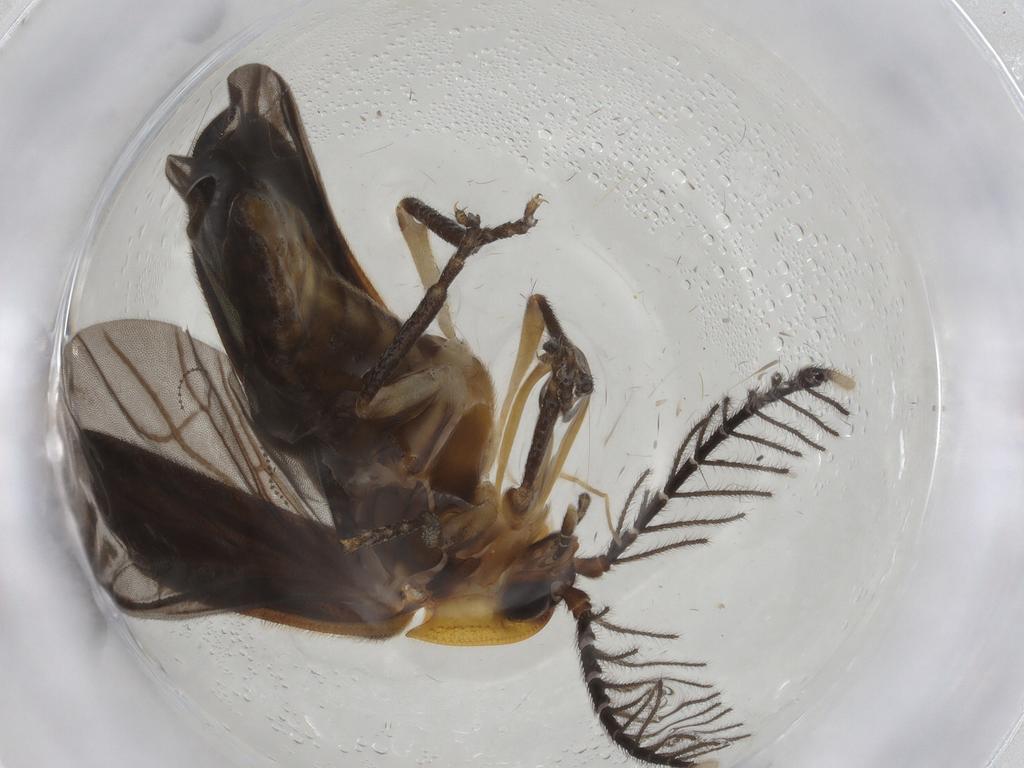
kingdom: Animalia
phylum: Arthropoda
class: Insecta
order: Coleoptera
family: Lampyridae
